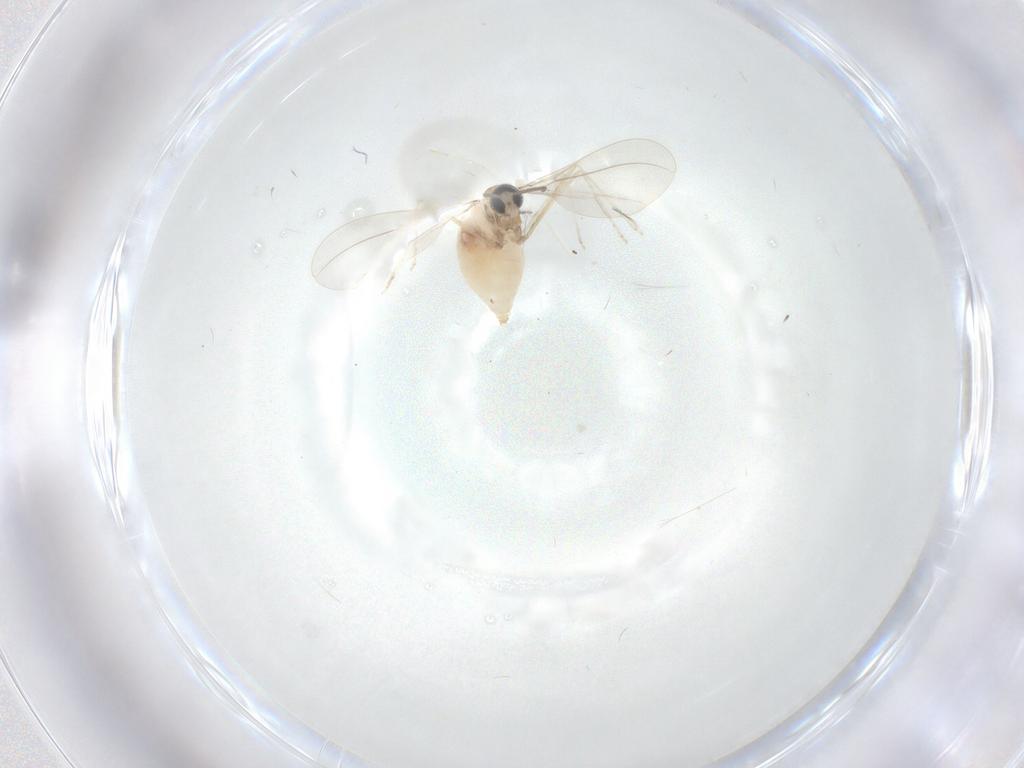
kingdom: Animalia
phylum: Arthropoda
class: Insecta
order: Diptera
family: Cecidomyiidae
